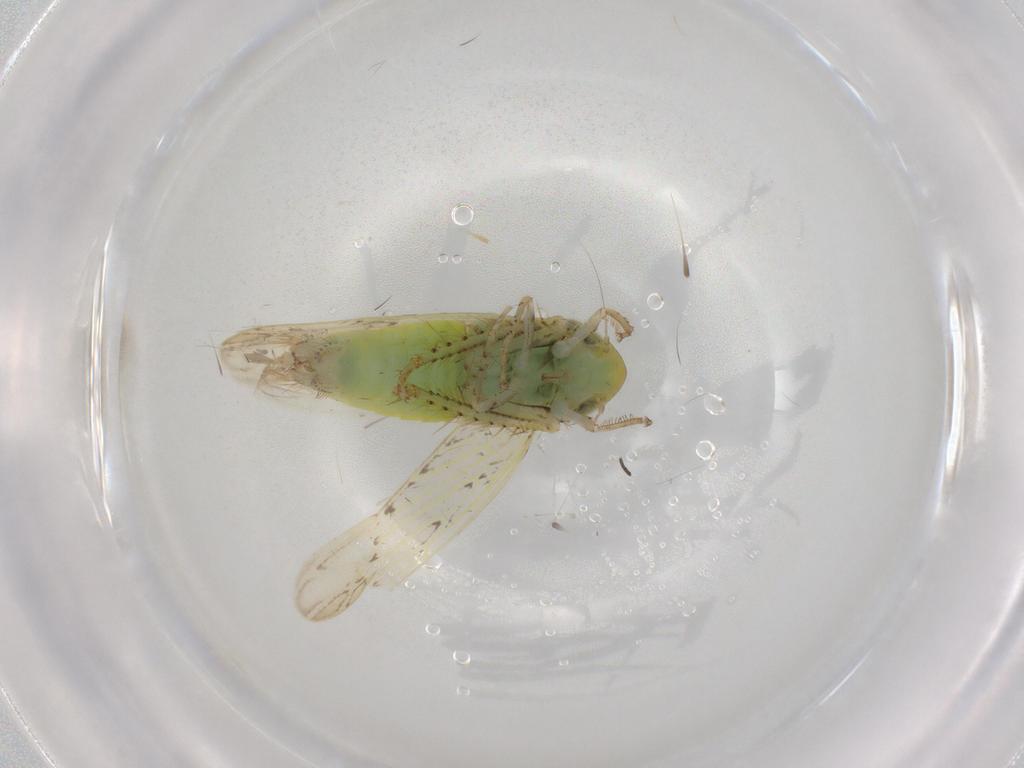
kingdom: Animalia
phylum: Arthropoda
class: Insecta
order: Hemiptera
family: Cicadellidae
